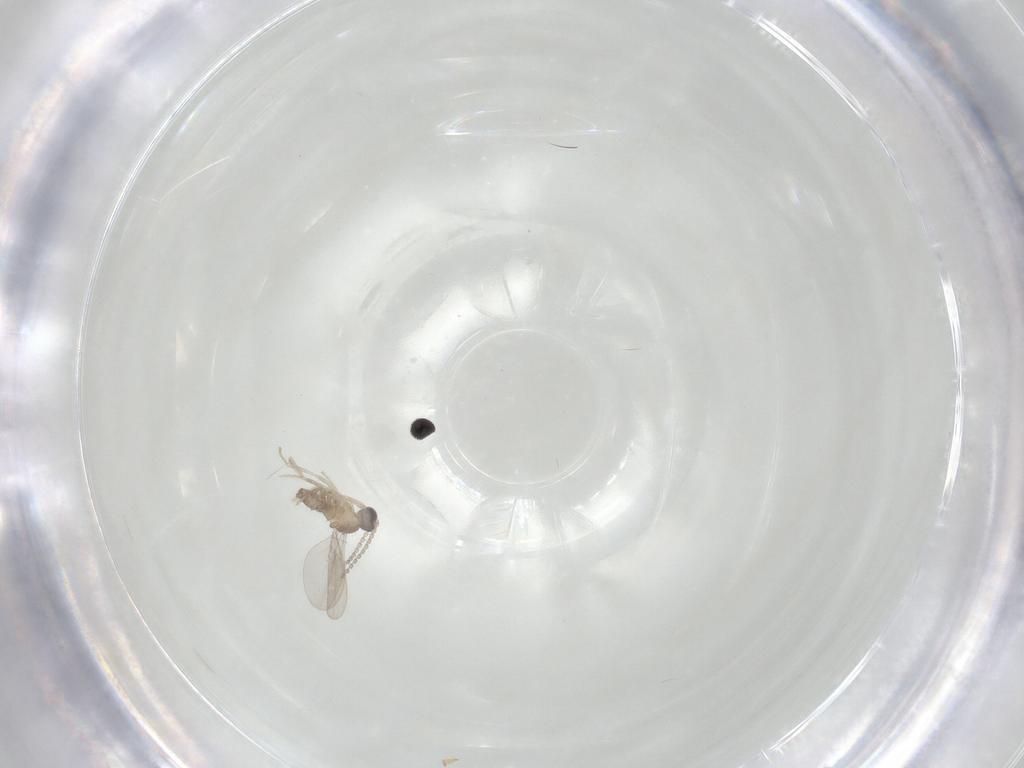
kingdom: Animalia
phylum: Arthropoda
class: Insecta
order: Diptera
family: Cecidomyiidae
